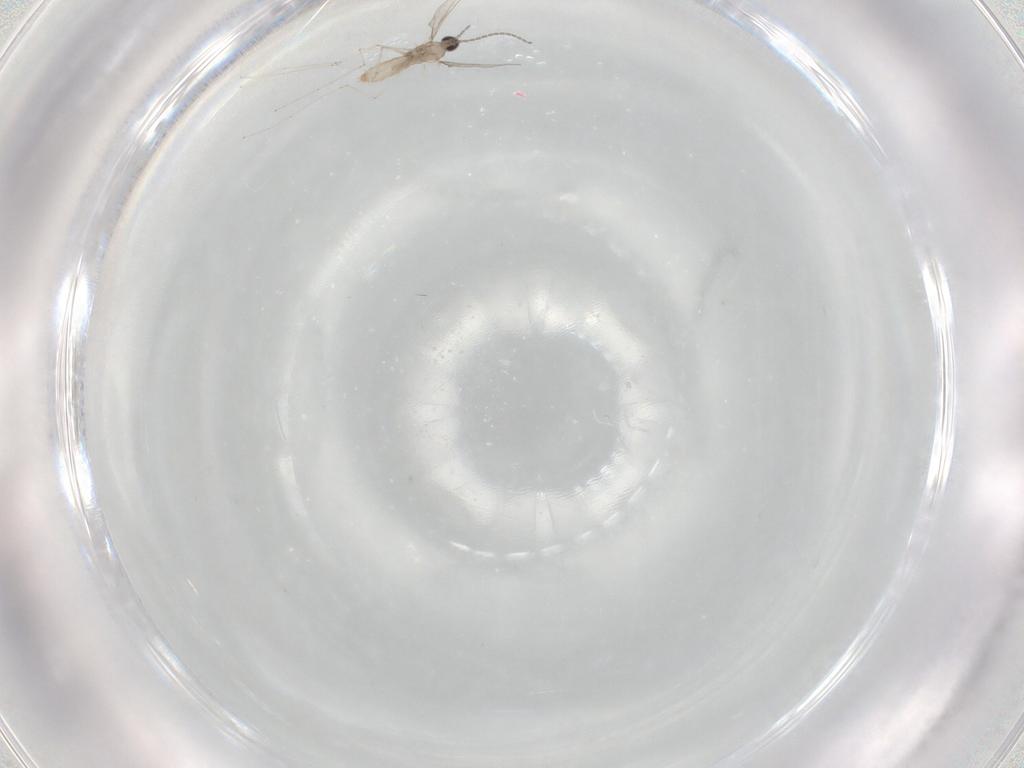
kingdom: Animalia
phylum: Arthropoda
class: Insecta
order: Diptera
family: Cecidomyiidae
